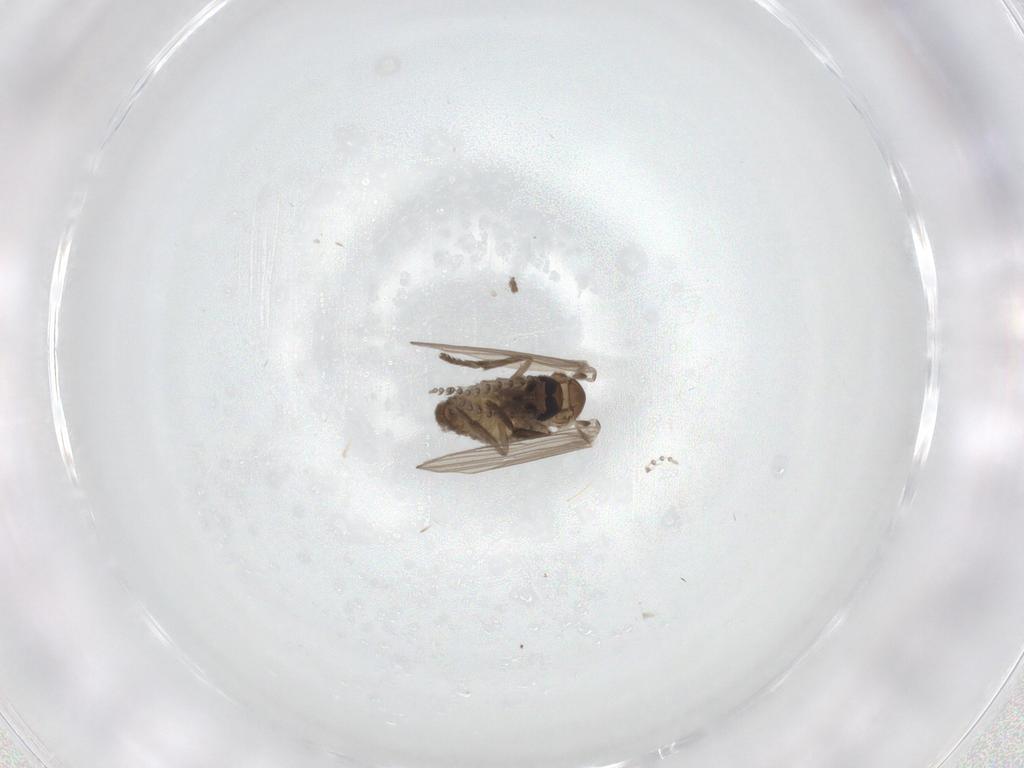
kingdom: Animalia
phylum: Arthropoda
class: Insecta
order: Diptera
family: Psychodidae
